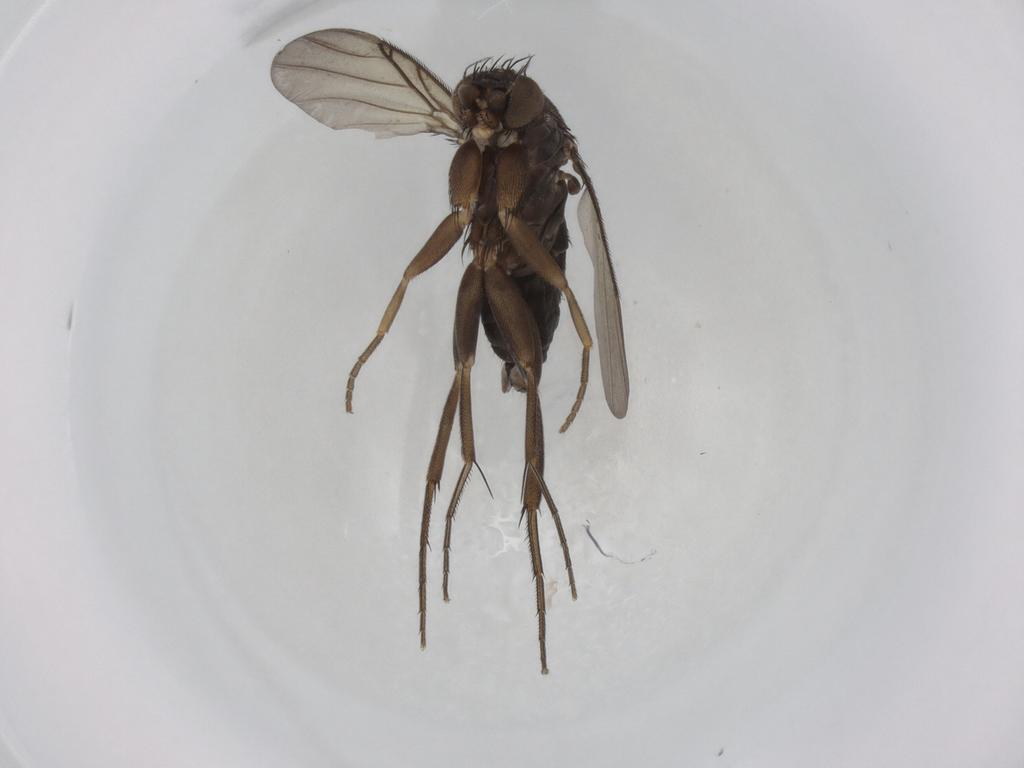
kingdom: Animalia
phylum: Arthropoda
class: Insecta
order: Diptera
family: Phoridae
